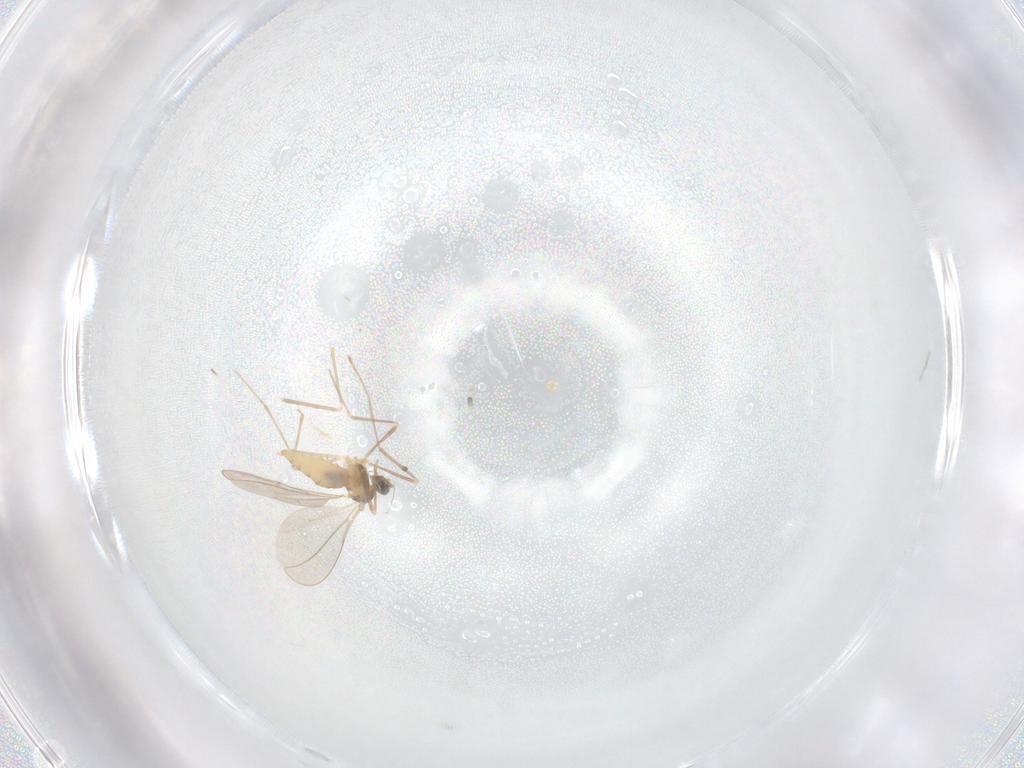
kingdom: Animalia
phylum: Arthropoda
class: Insecta
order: Diptera
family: Cecidomyiidae
